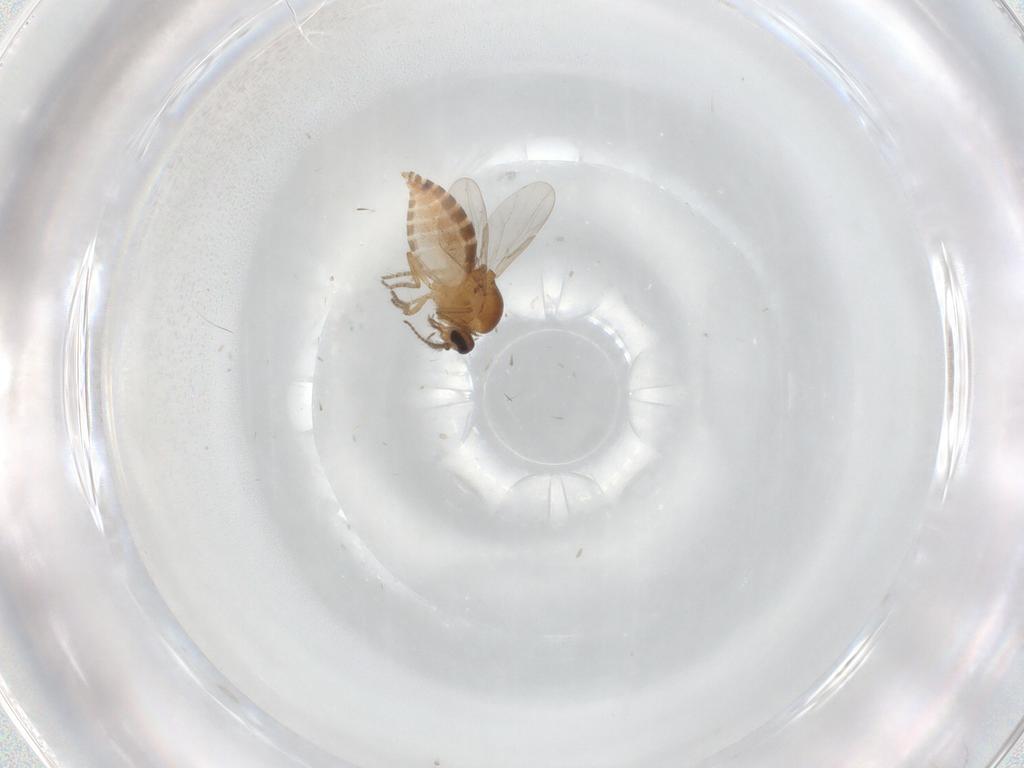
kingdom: Animalia
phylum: Arthropoda
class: Insecta
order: Diptera
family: Ceratopogonidae
